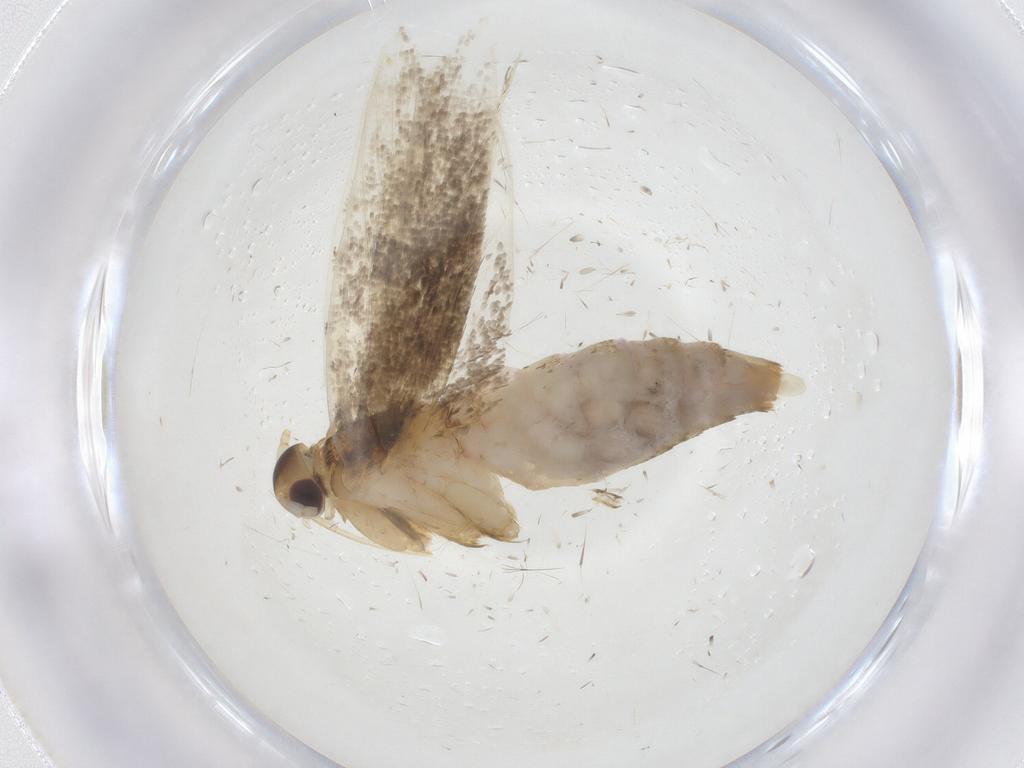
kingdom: Animalia
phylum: Arthropoda
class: Insecta
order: Lepidoptera
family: Lecithoceridae
